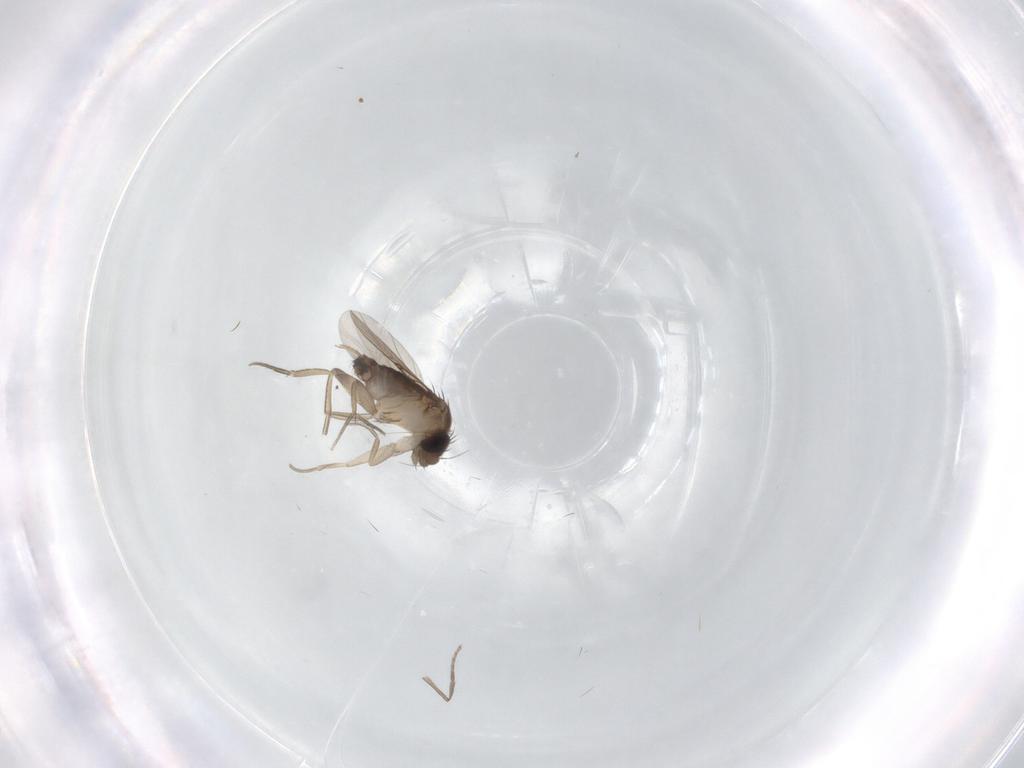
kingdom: Animalia
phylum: Arthropoda
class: Insecta
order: Diptera
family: Phoridae
